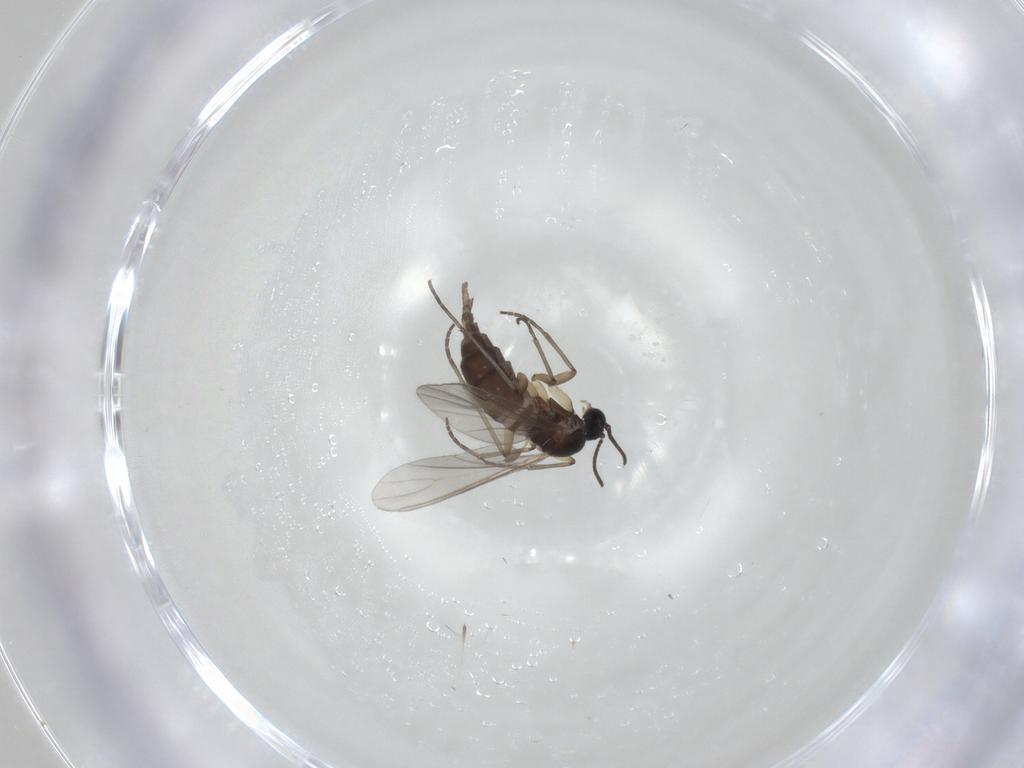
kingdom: Animalia
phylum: Arthropoda
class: Insecta
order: Diptera
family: Sciaridae
